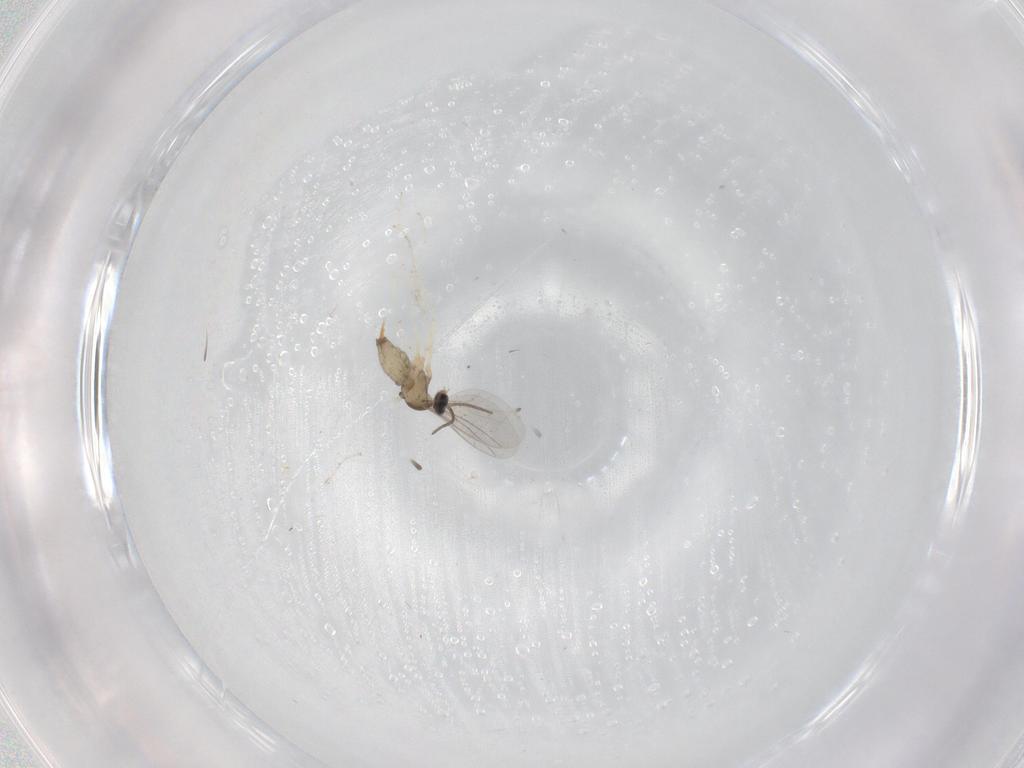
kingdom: Animalia
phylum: Arthropoda
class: Insecta
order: Diptera
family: Cecidomyiidae
